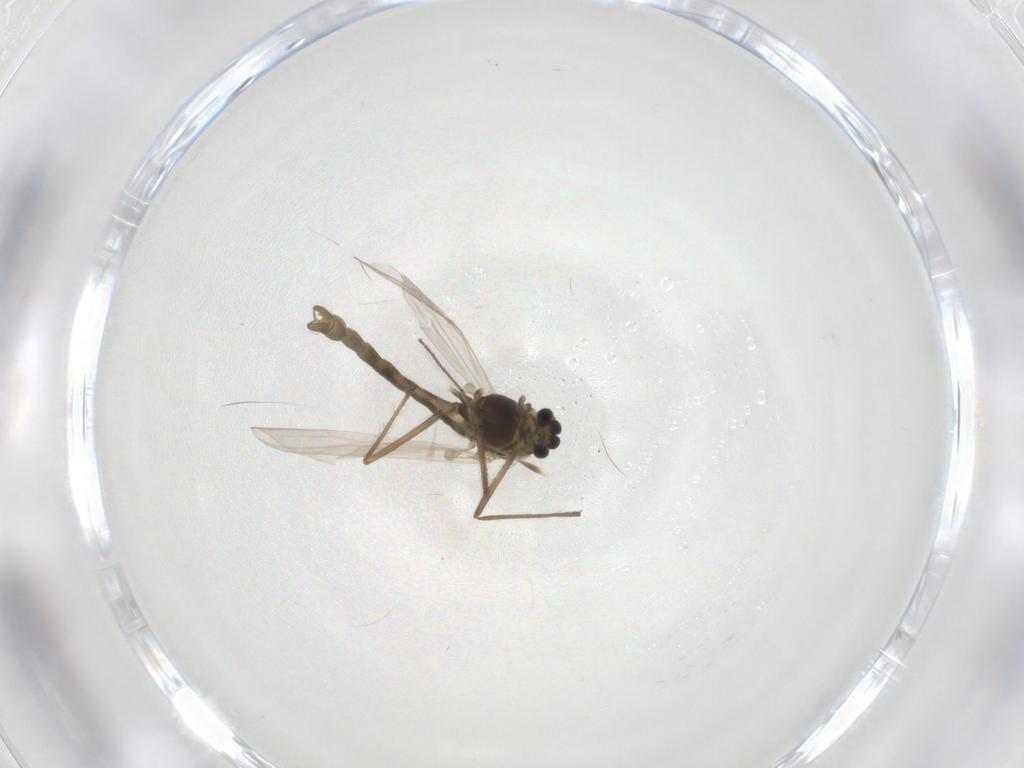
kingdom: Animalia
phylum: Arthropoda
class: Insecta
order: Diptera
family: Chironomidae
